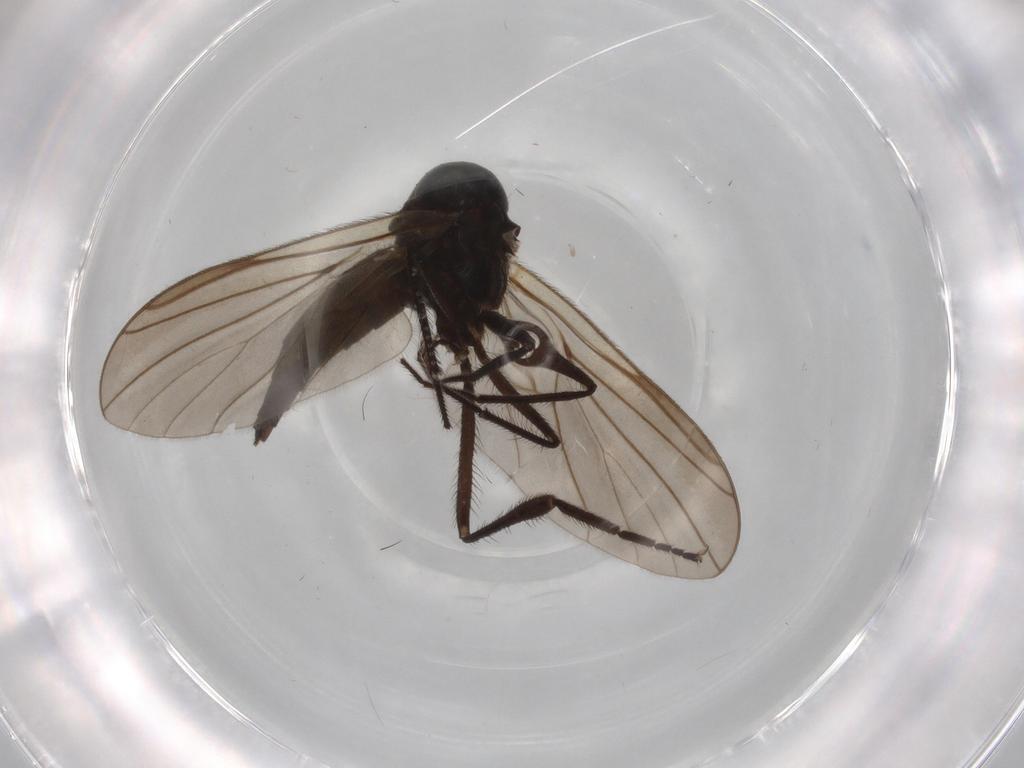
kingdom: Animalia
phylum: Arthropoda
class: Insecta
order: Diptera
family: Hybotidae
